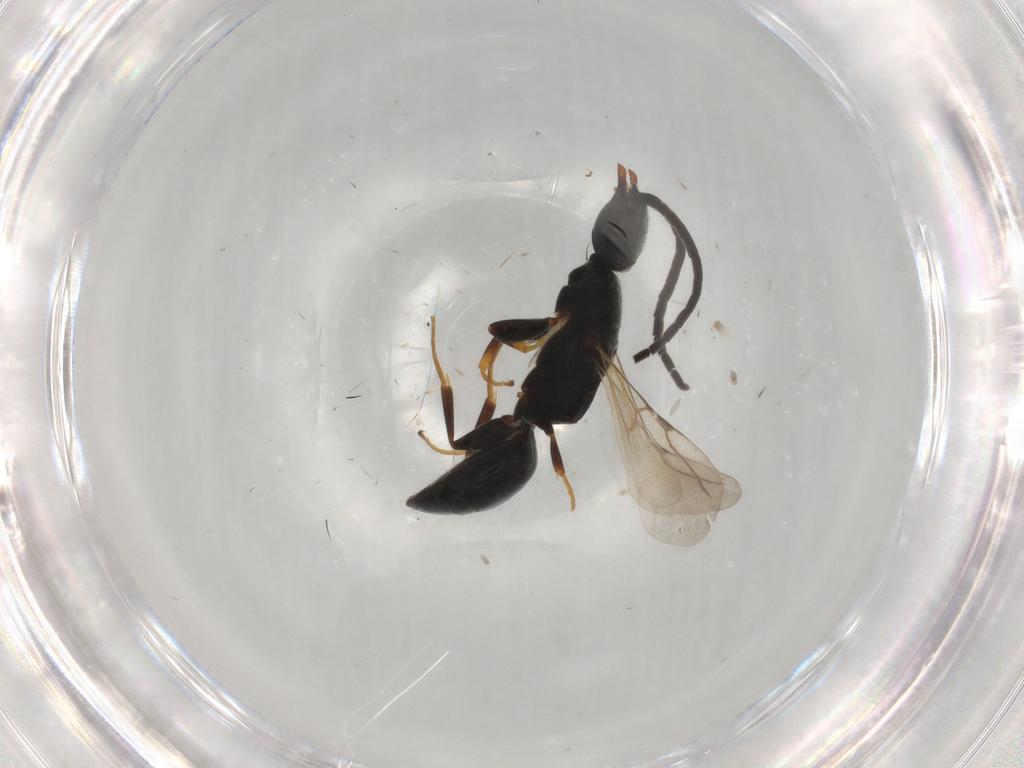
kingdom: Animalia
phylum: Arthropoda
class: Insecta
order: Hymenoptera
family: Bethylidae
